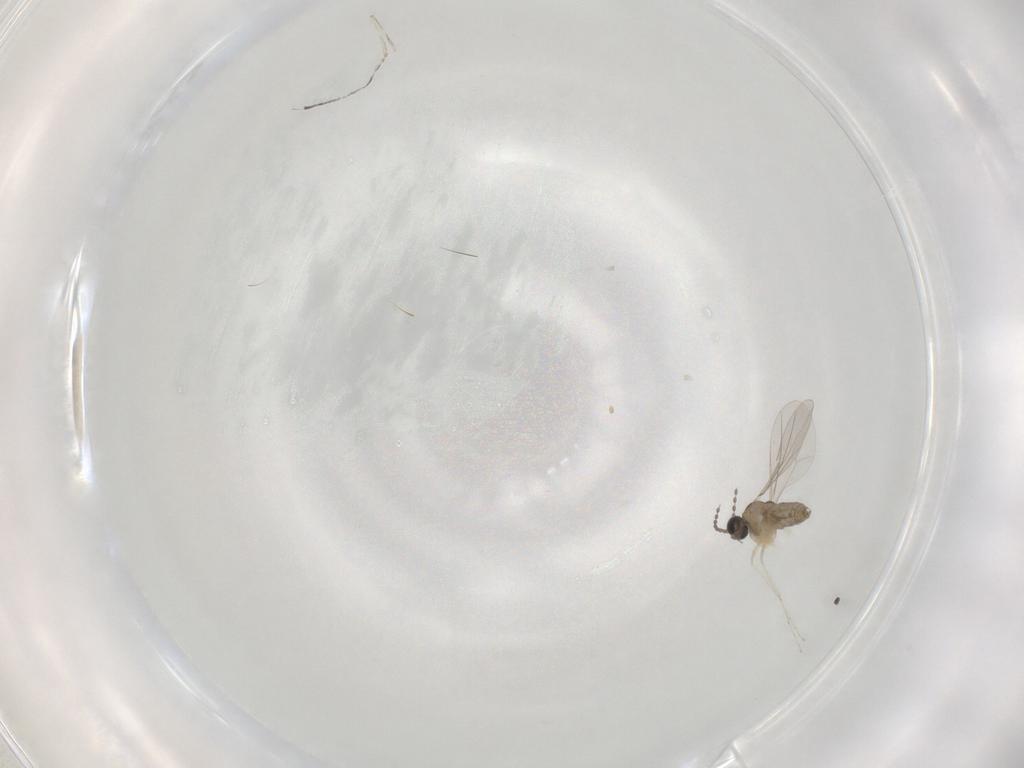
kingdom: Animalia
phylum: Arthropoda
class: Insecta
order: Diptera
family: Cecidomyiidae
